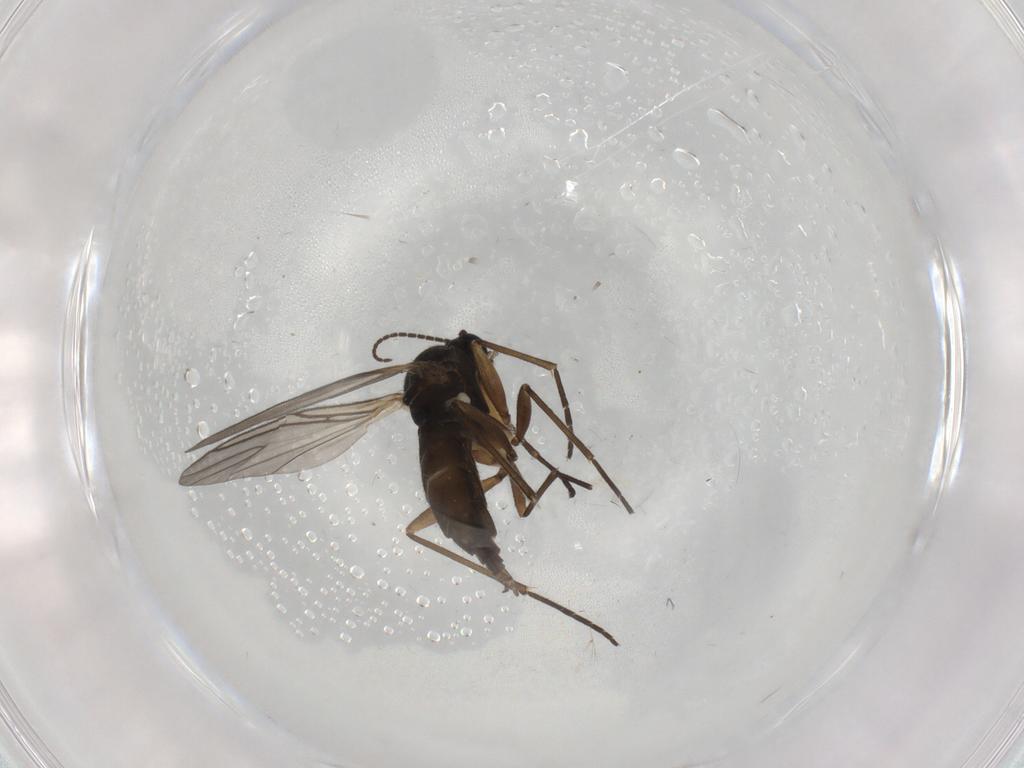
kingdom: Animalia
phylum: Arthropoda
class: Insecta
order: Diptera
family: Sciaridae
